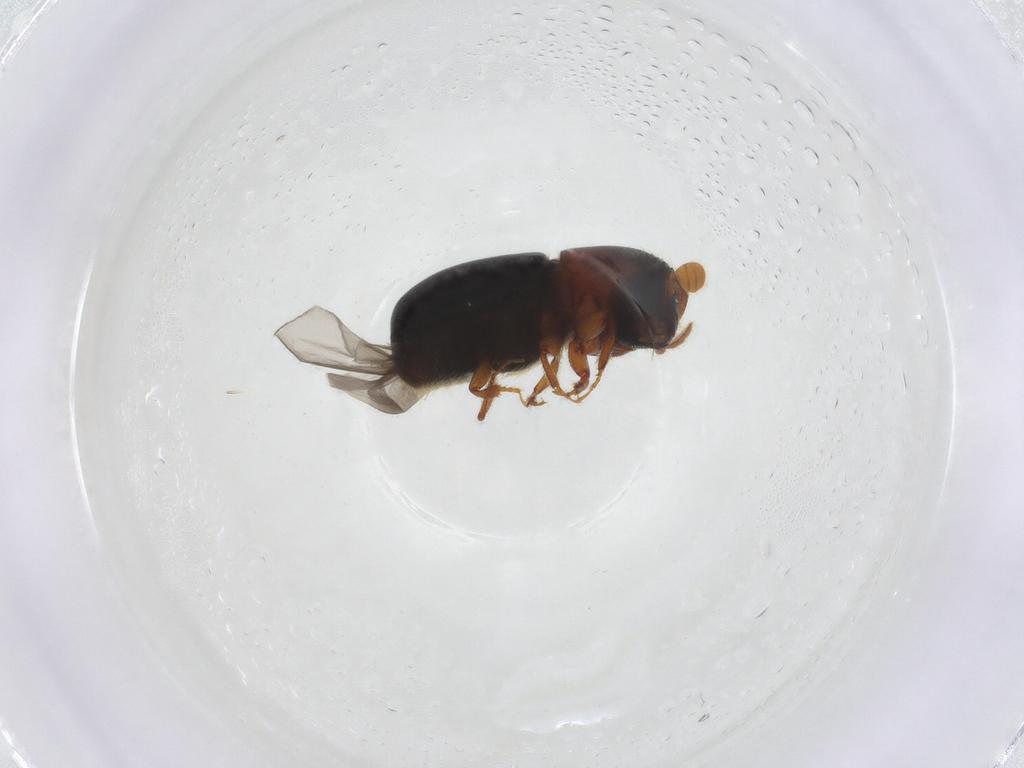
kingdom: Animalia
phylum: Arthropoda
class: Insecta
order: Coleoptera
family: Curculionidae
